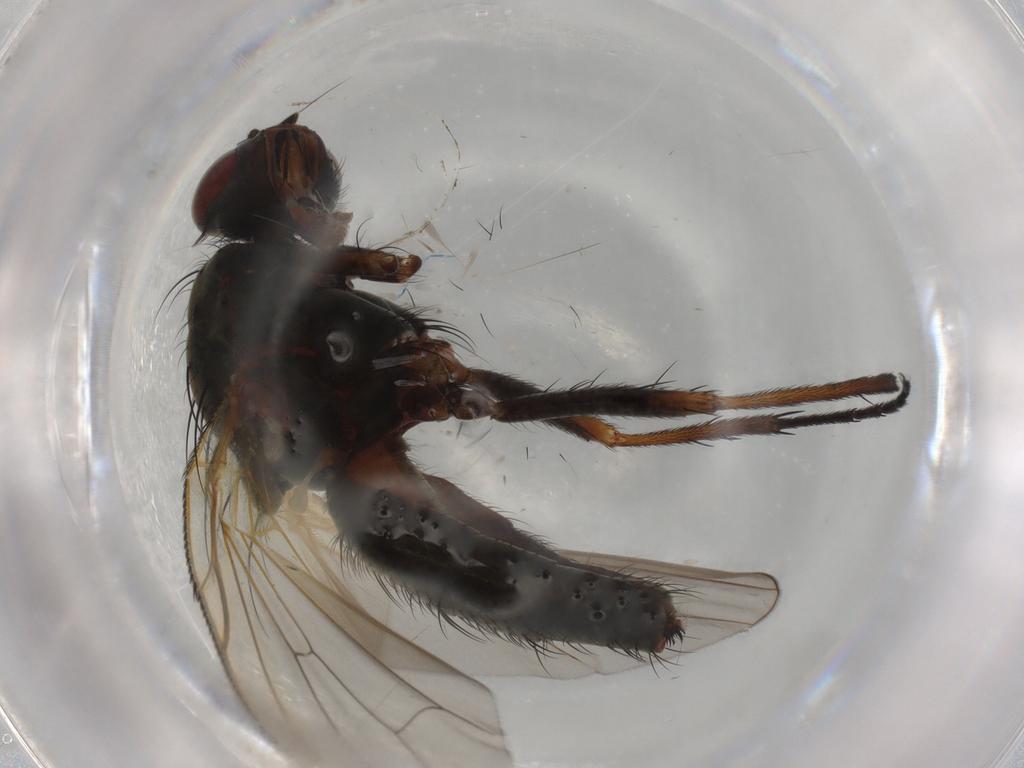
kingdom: Animalia
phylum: Arthropoda
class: Insecta
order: Diptera
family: Anthomyiidae
